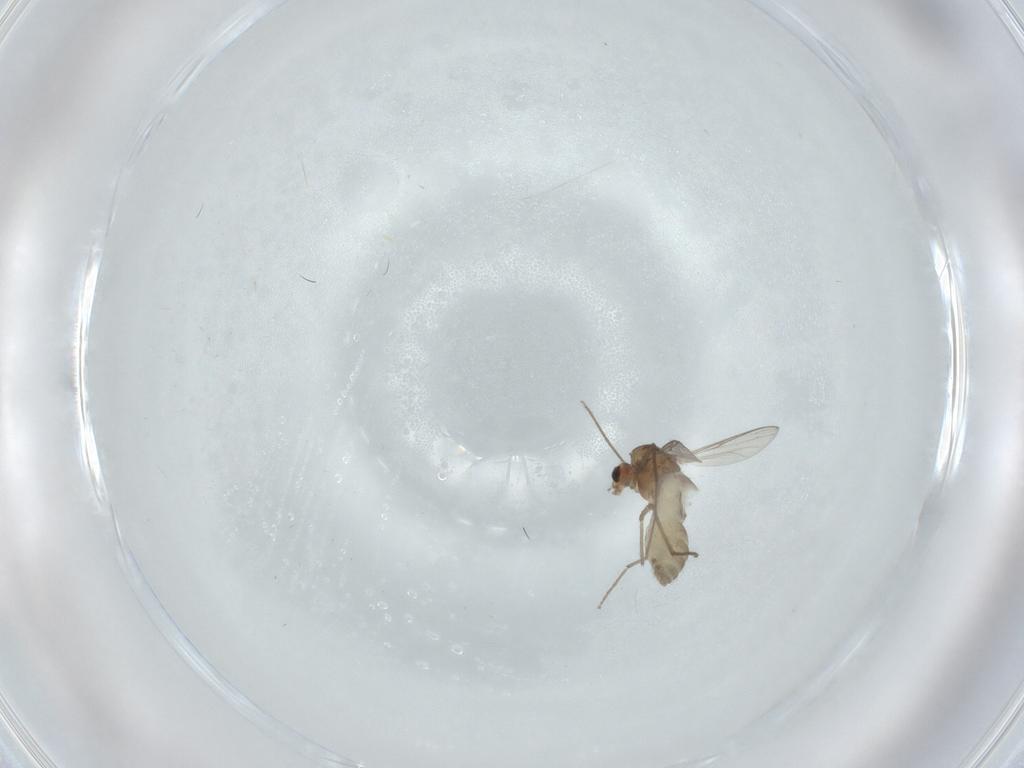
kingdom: Animalia
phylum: Arthropoda
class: Insecta
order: Diptera
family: Chironomidae
